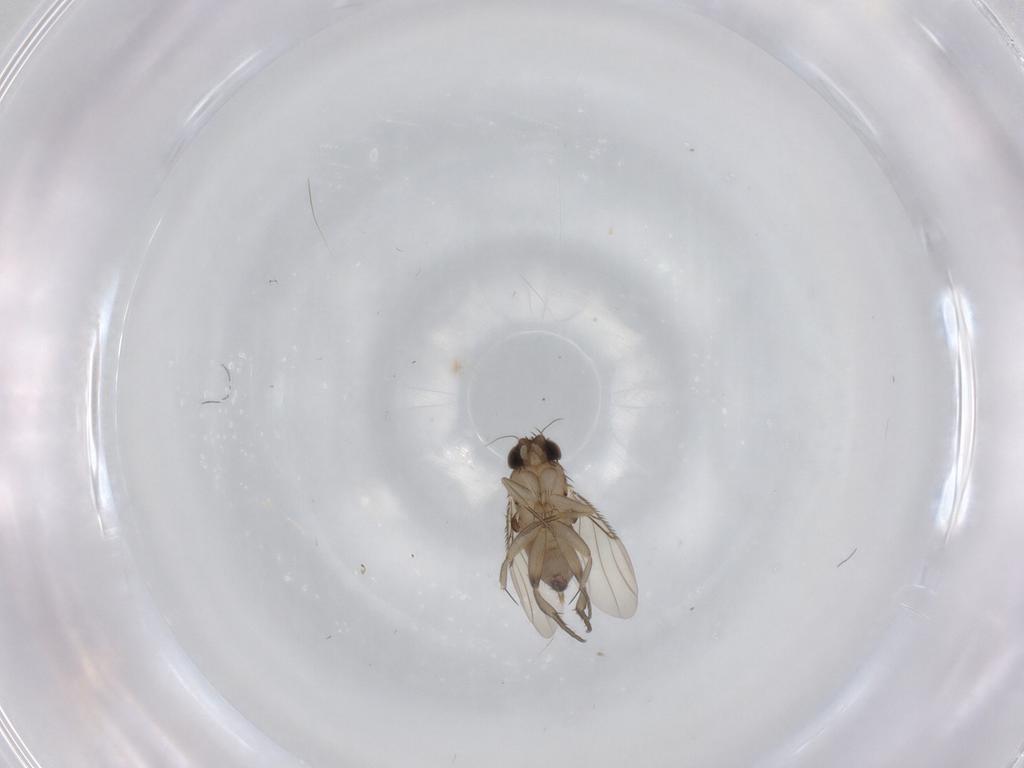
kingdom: Animalia
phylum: Arthropoda
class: Insecta
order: Diptera
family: Phoridae
